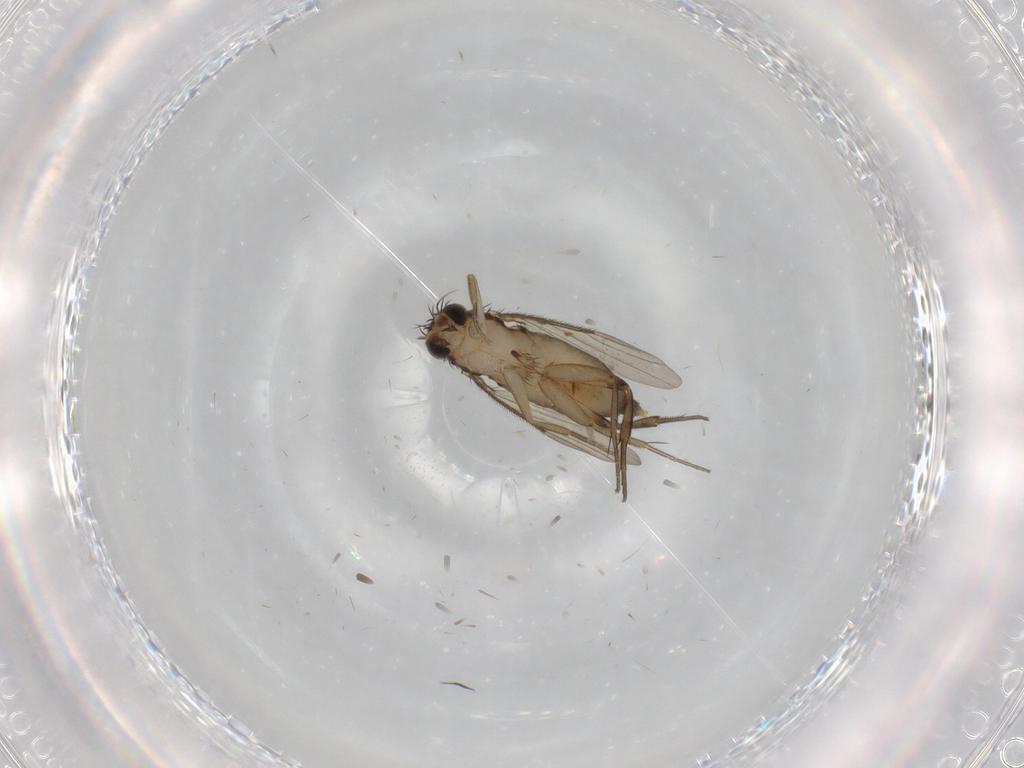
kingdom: Animalia
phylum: Arthropoda
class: Insecta
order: Diptera
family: Phoridae
